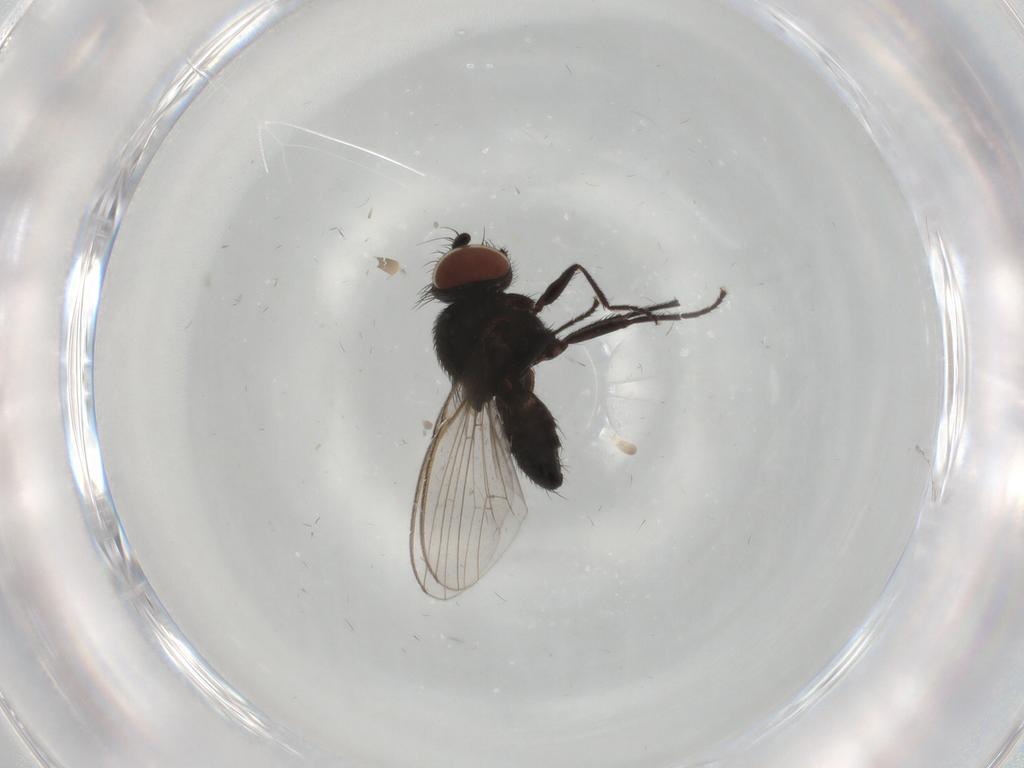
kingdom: Animalia
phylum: Arthropoda
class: Insecta
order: Diptera
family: Milichiidae
